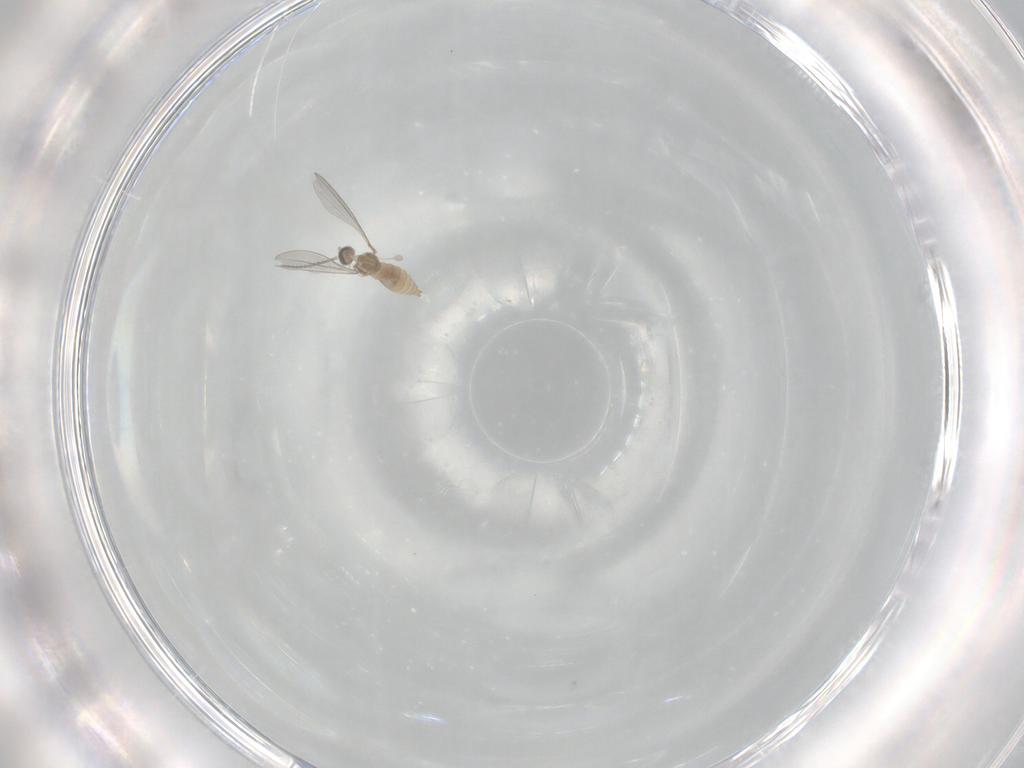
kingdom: Animalia
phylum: Arthropoda
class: Insecta
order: Diptera
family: Cecidomyiidae
